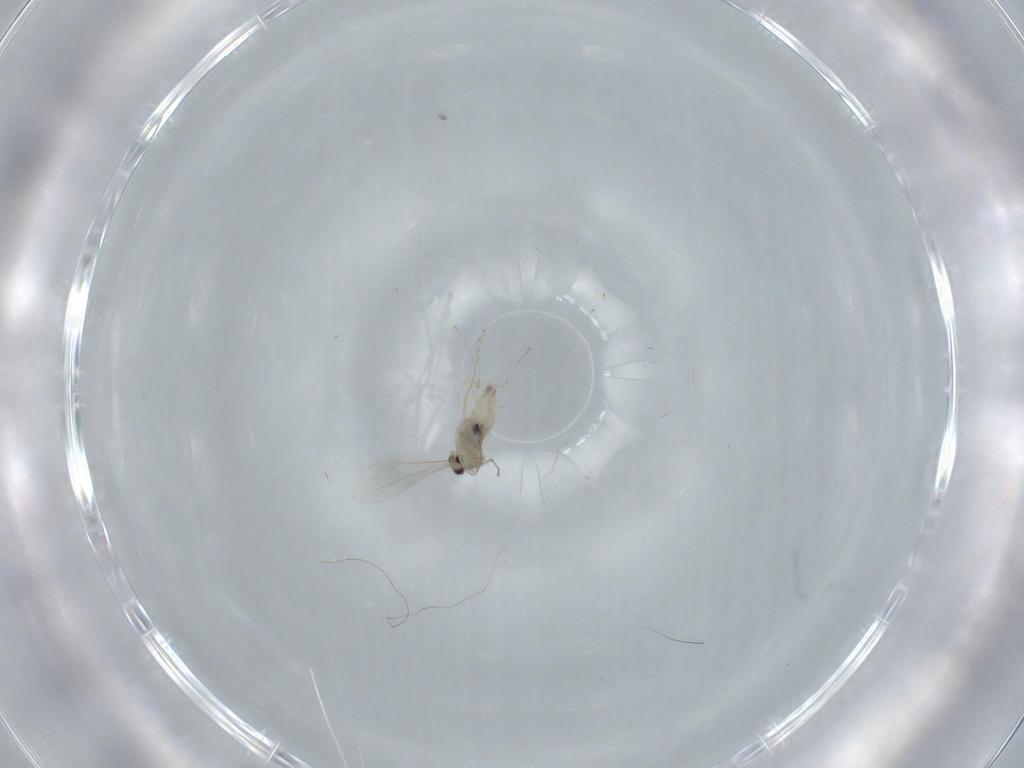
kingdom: Animalia
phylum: Arthropoda
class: Insecta
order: Diptera
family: Cecidomyiidae
